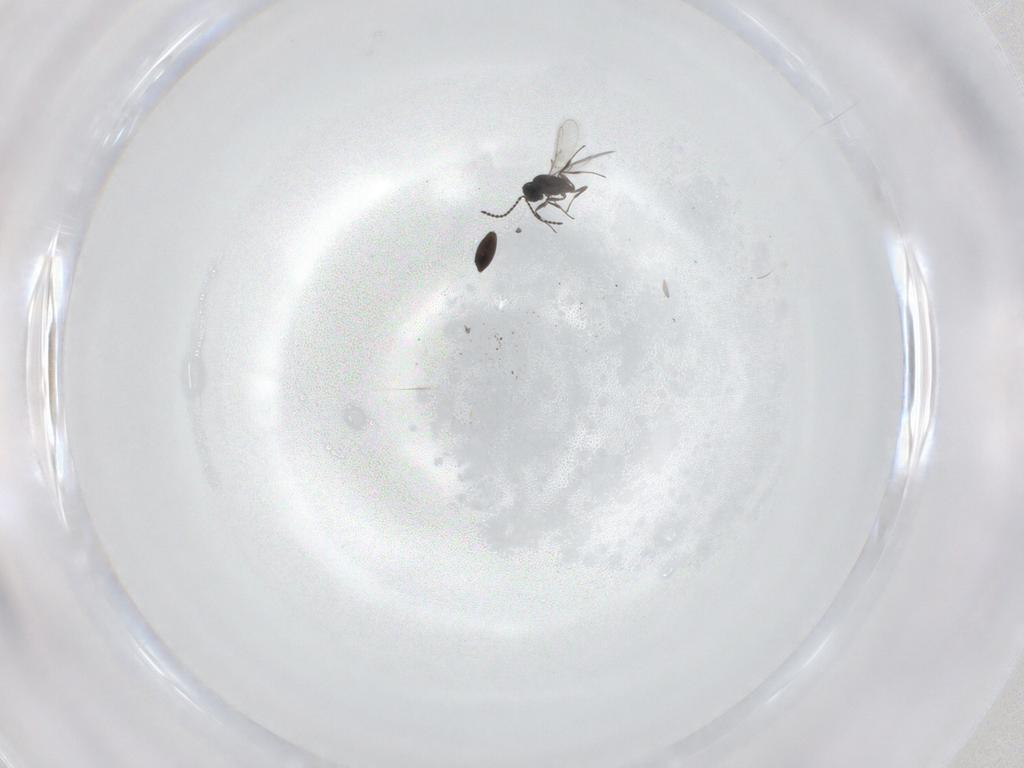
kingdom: Animalia
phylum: Arthropoda
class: Insecta
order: Hymenoptera
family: Scelionidae
